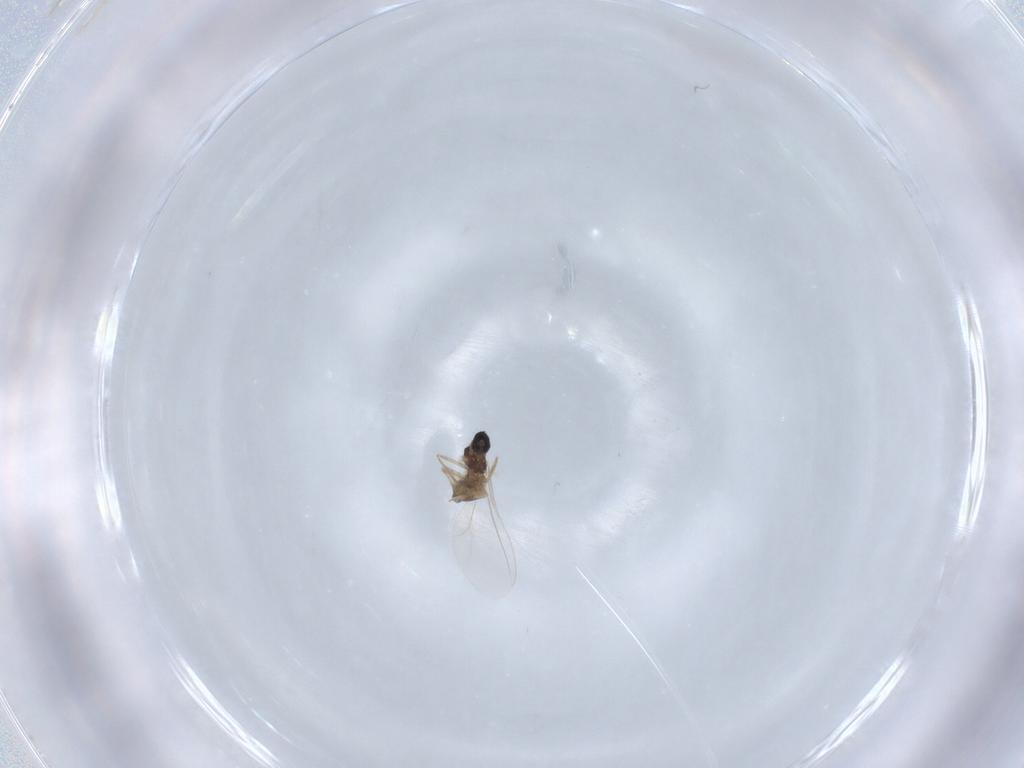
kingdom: Animalia
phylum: Arthropoda
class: Insecta
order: Diptera
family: Cecidomyiidae
